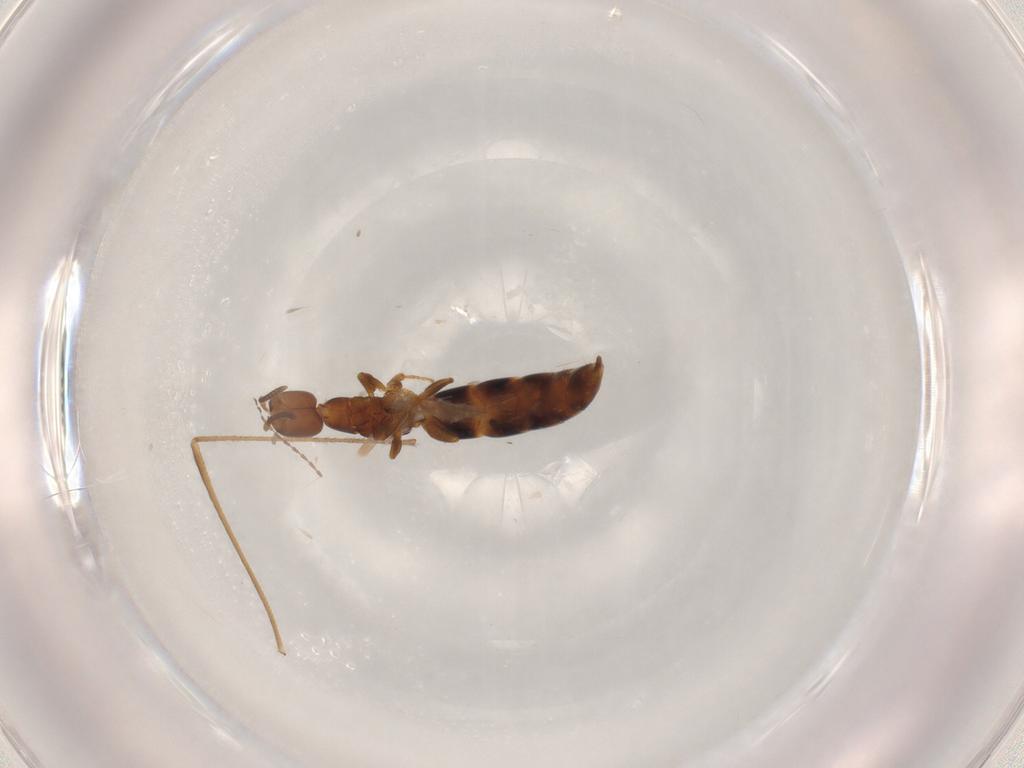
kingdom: Animalia
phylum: Arthropoda
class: Insecta
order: Hymenoptera
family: Bethylidae
